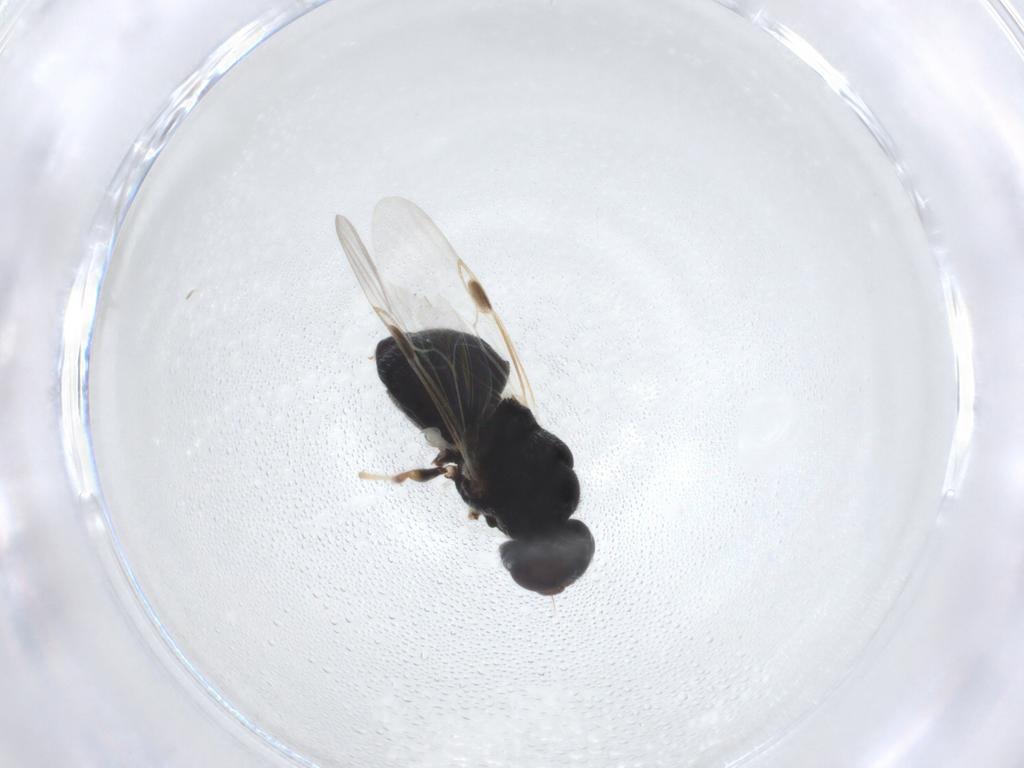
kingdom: Animalia
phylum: Arthropoda
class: Insecta
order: Diptera
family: Stratiomyidae
